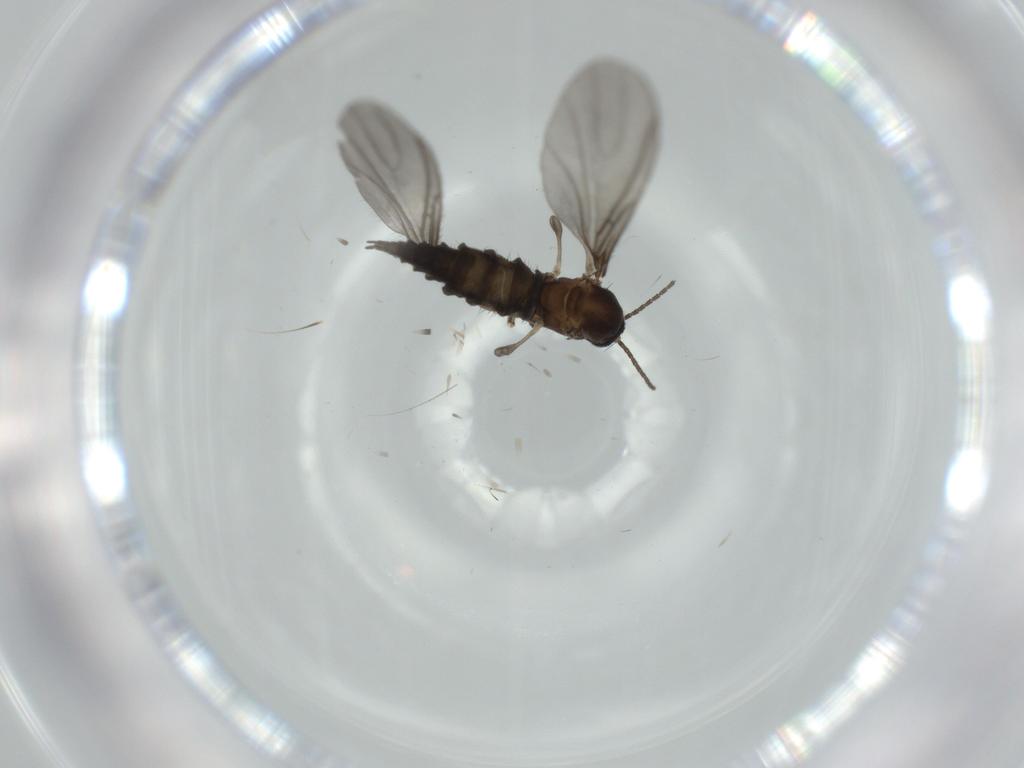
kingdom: Animalia
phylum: Arthropoda
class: Insecta
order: Diptera
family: Sciaridae
